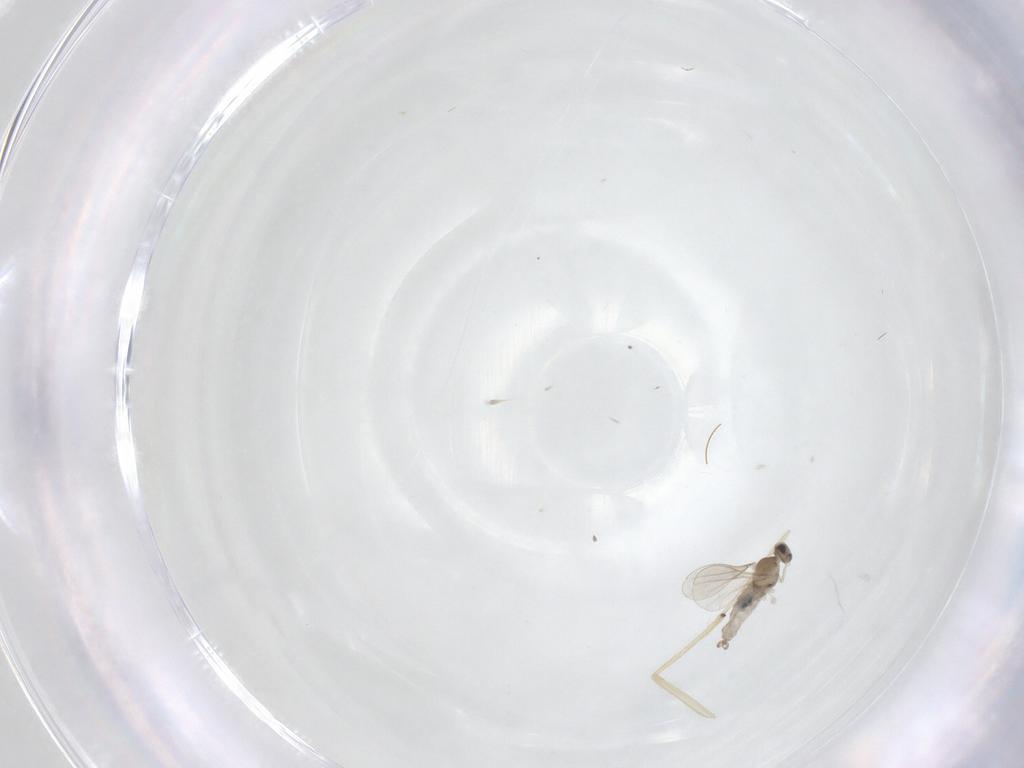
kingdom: Animalia
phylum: Arthropoda
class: Insecta
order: Diptera
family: Cecidomyiidae
